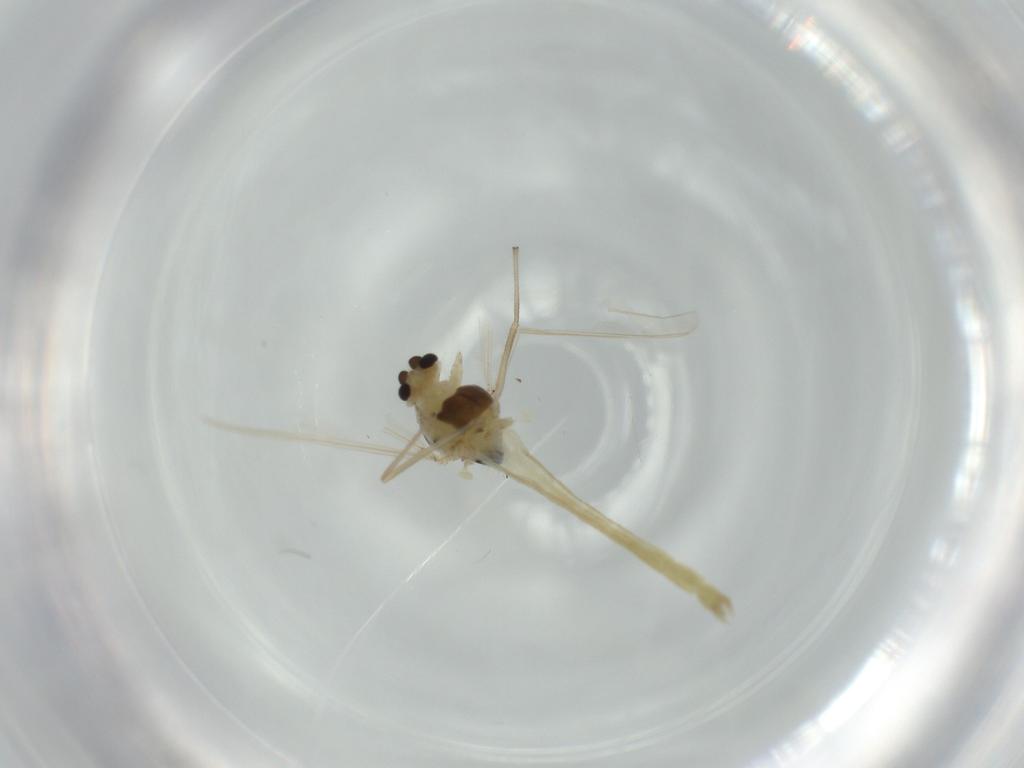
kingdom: Animalia
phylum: Arthropoda
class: Insecta
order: Diptera
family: Chironomidae
